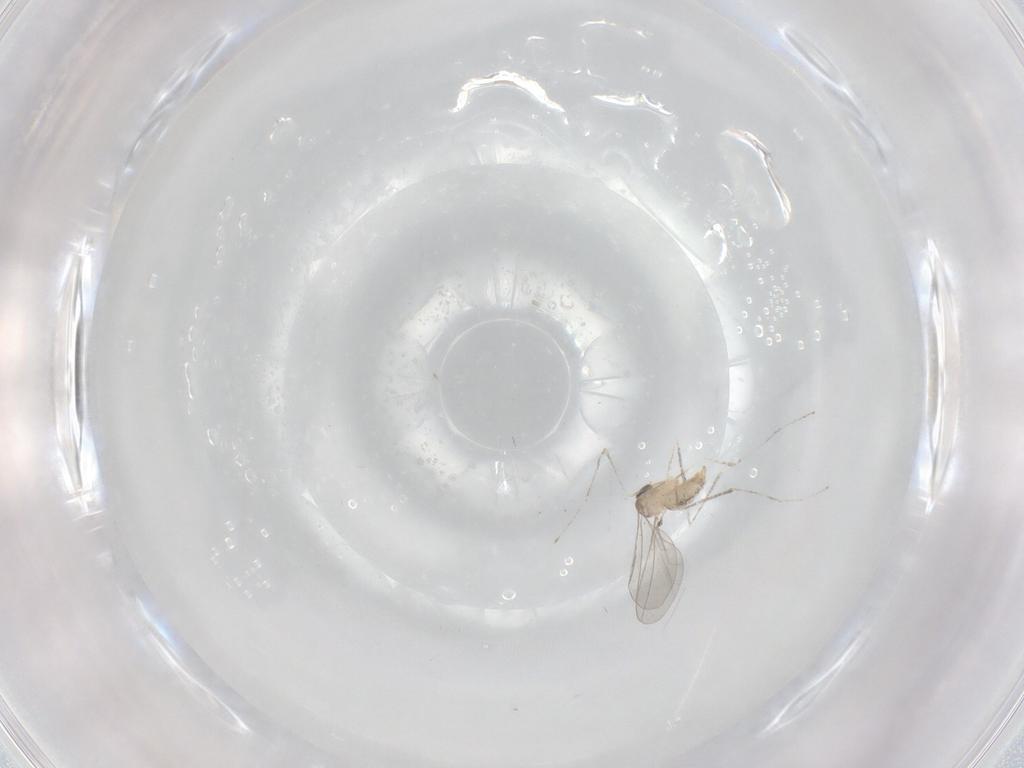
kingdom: Animalia
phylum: Arthropoda
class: Insecta
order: Diptera
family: Cecidomyiidae
